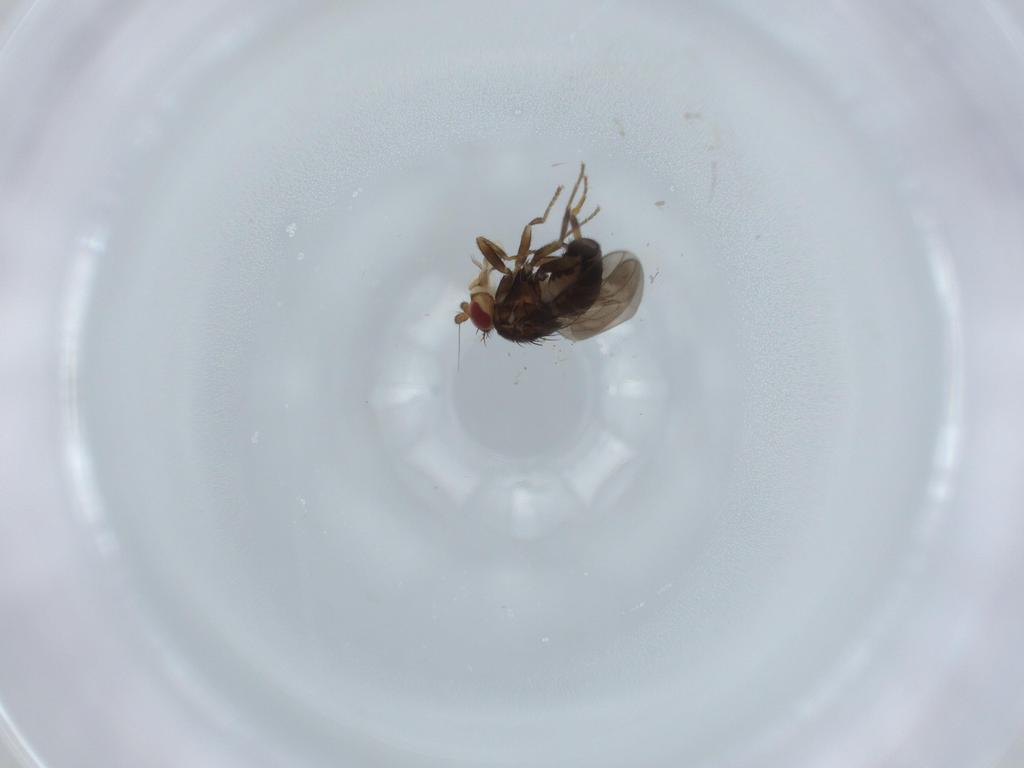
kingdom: Animalia
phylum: Arthropoda
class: Insecta
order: Diptera
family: Sphaeroceridae
